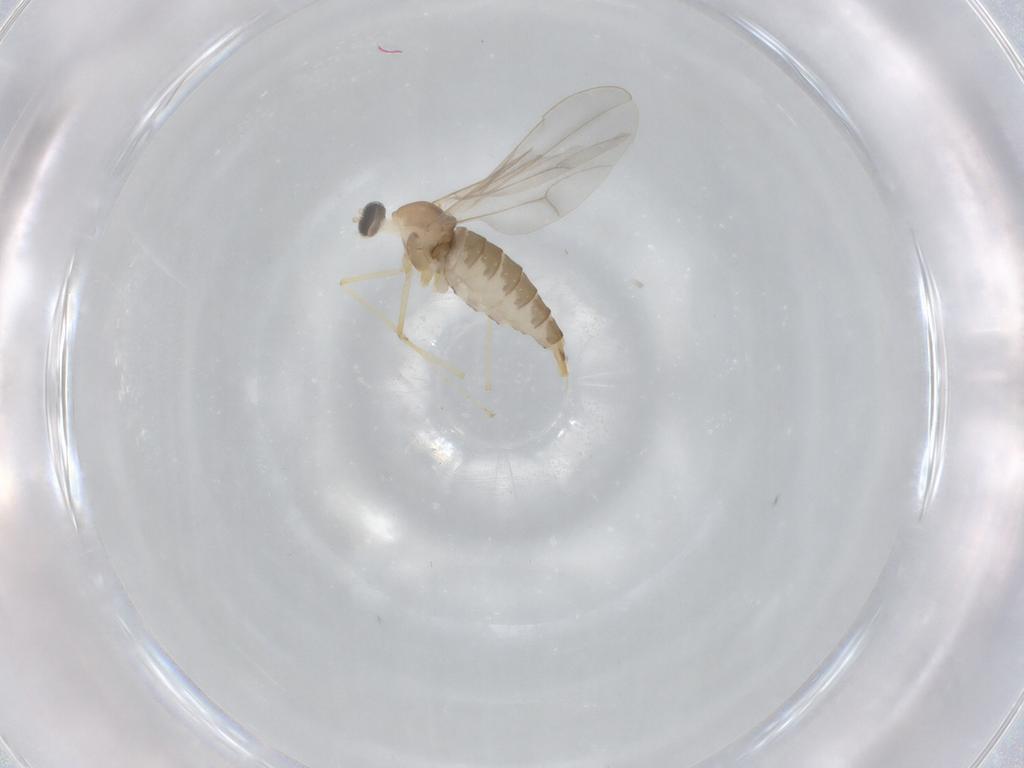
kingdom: Animalia
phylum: Arthropoda
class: Insecta
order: Diptera
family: Cecidomyiidae
